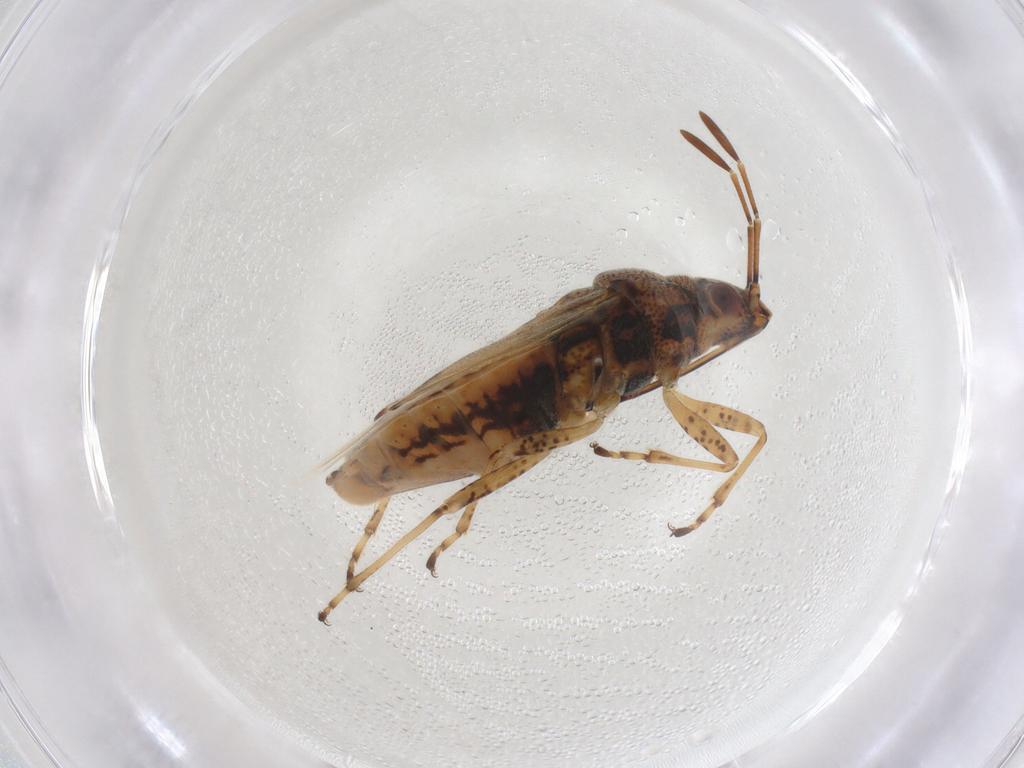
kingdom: Animalia
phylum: Arthropoda
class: Insecta
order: Hemiptera
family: Lygaeidae
